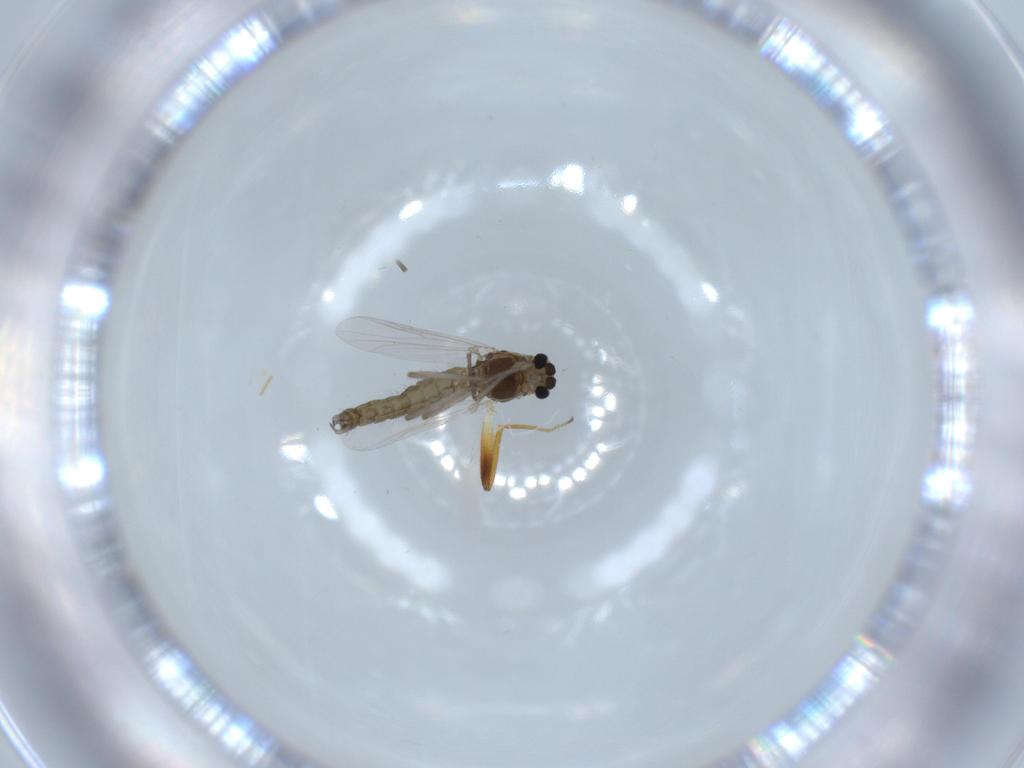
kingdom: Animalia
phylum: Arthropoda
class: Insecta
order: Diptera
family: Chironomidae
